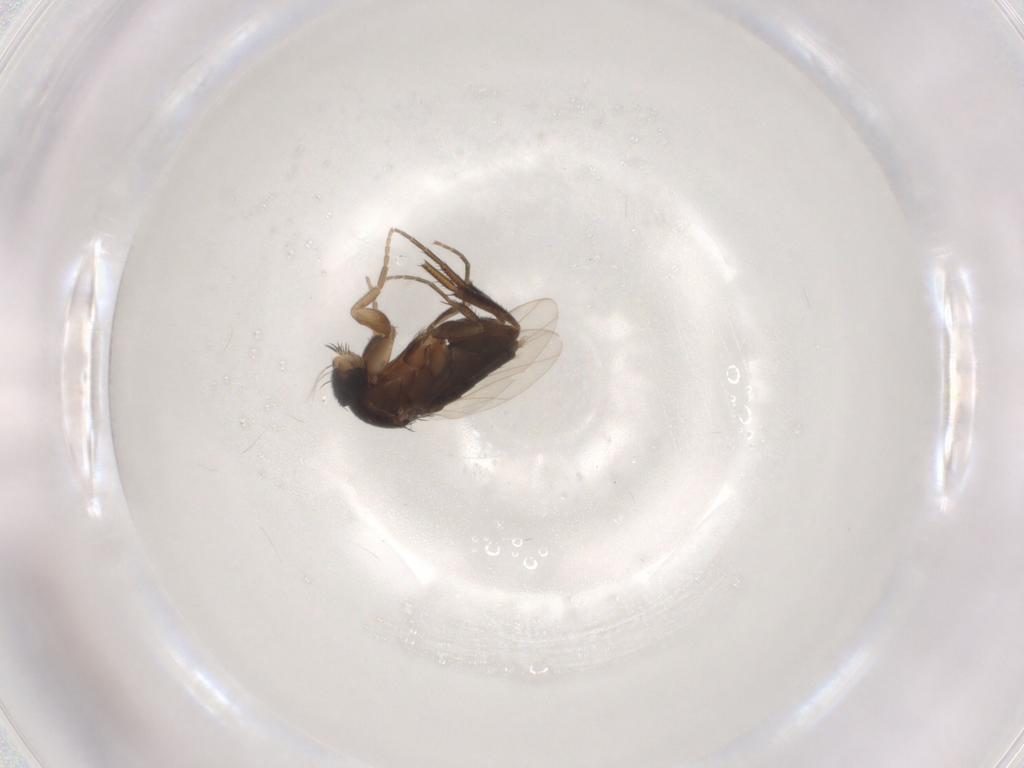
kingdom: Animalia
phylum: Arthropoda
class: Insecta
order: Diptera
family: Phoridae
